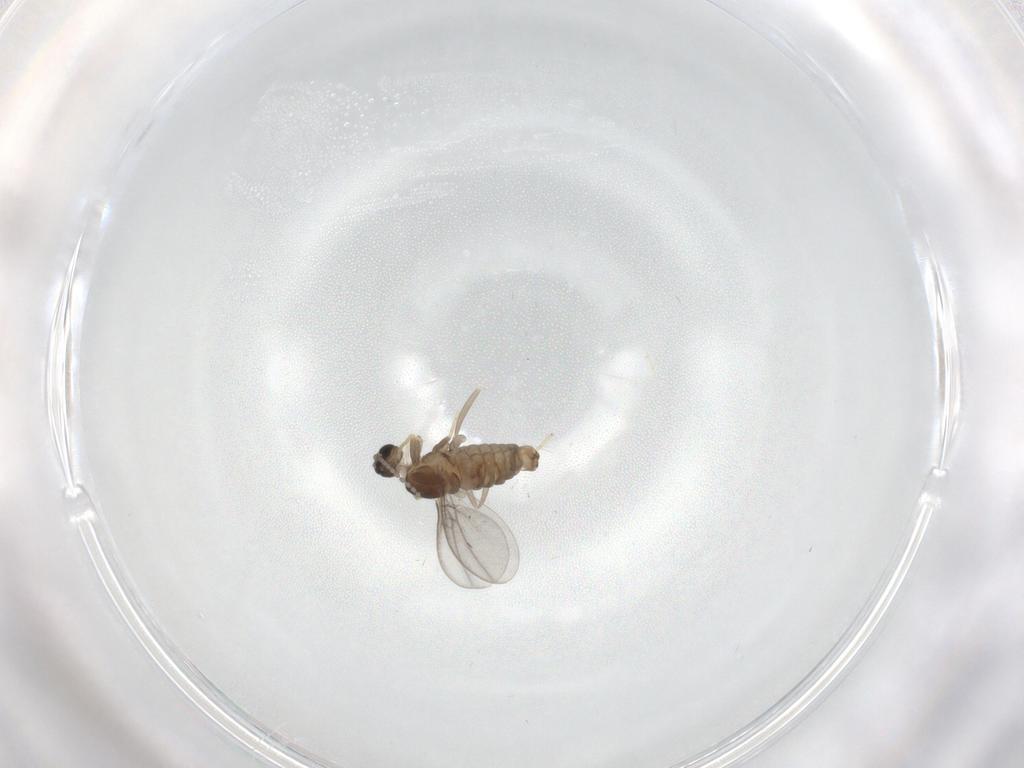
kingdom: Animalia
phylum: Arthropoda
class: Insecta
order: Diptera
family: Cecidomyiidae
